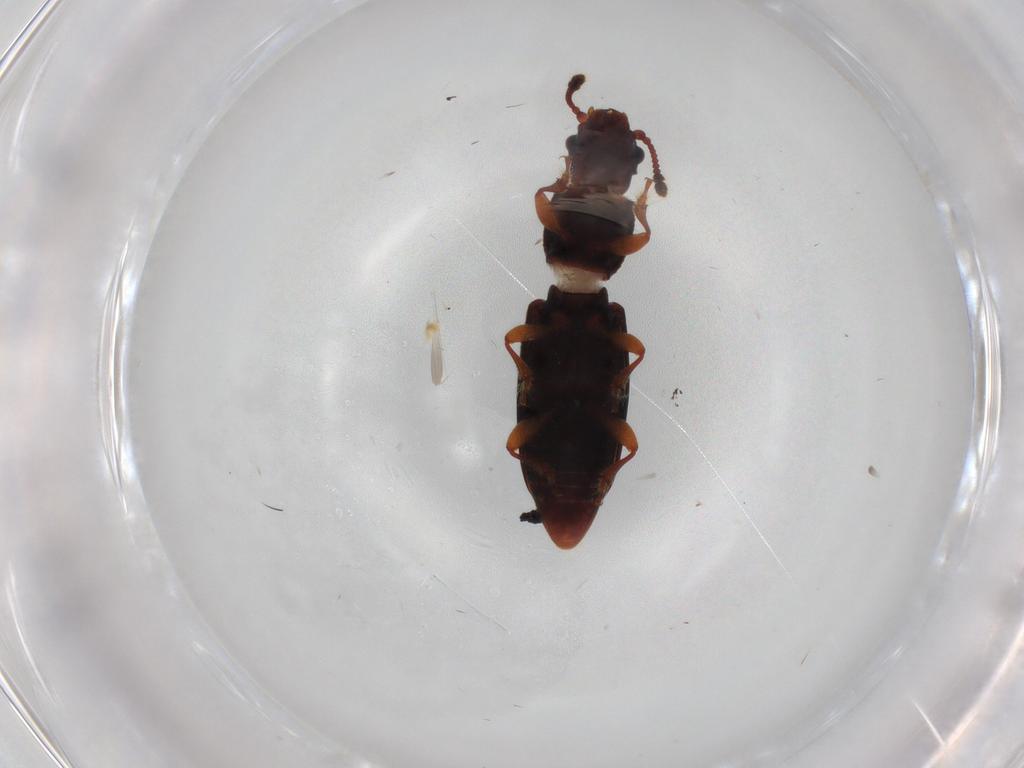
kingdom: Animalia
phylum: Arthropoda
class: Insecta
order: Coleoptera
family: Monotomidae
